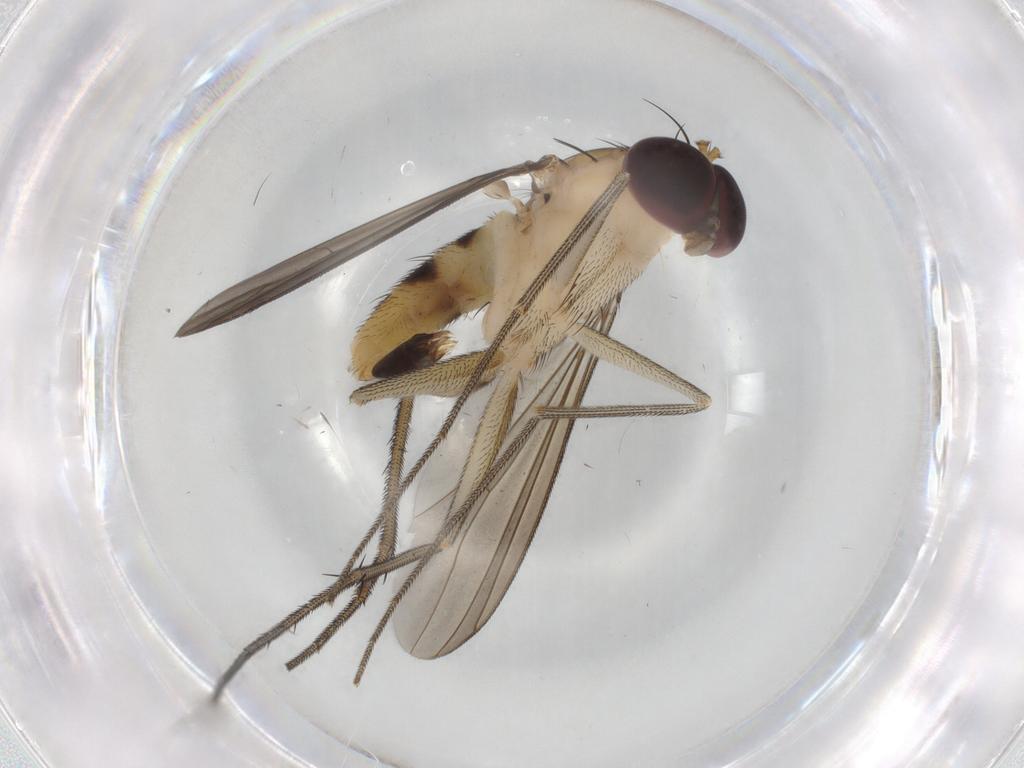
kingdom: Animalia
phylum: Arthropoda
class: Insecta
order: Diptera
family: Dolichopodidae
